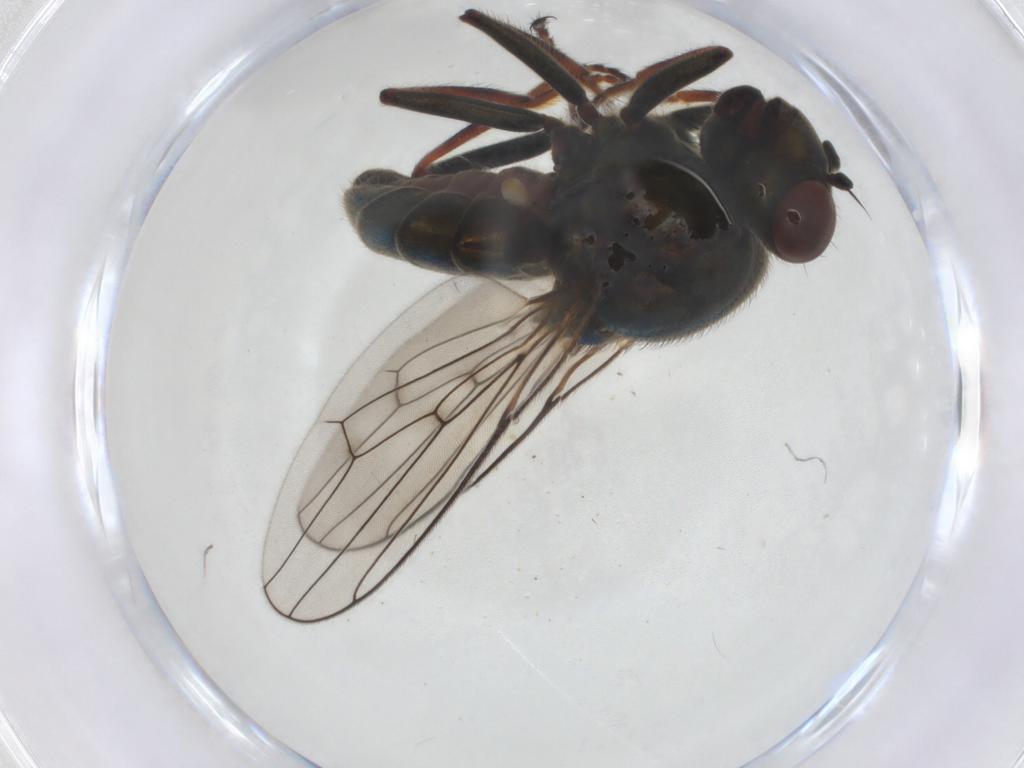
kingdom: Animalia
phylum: Arthropoda
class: Insecta
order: Diptera
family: Ephydridae
